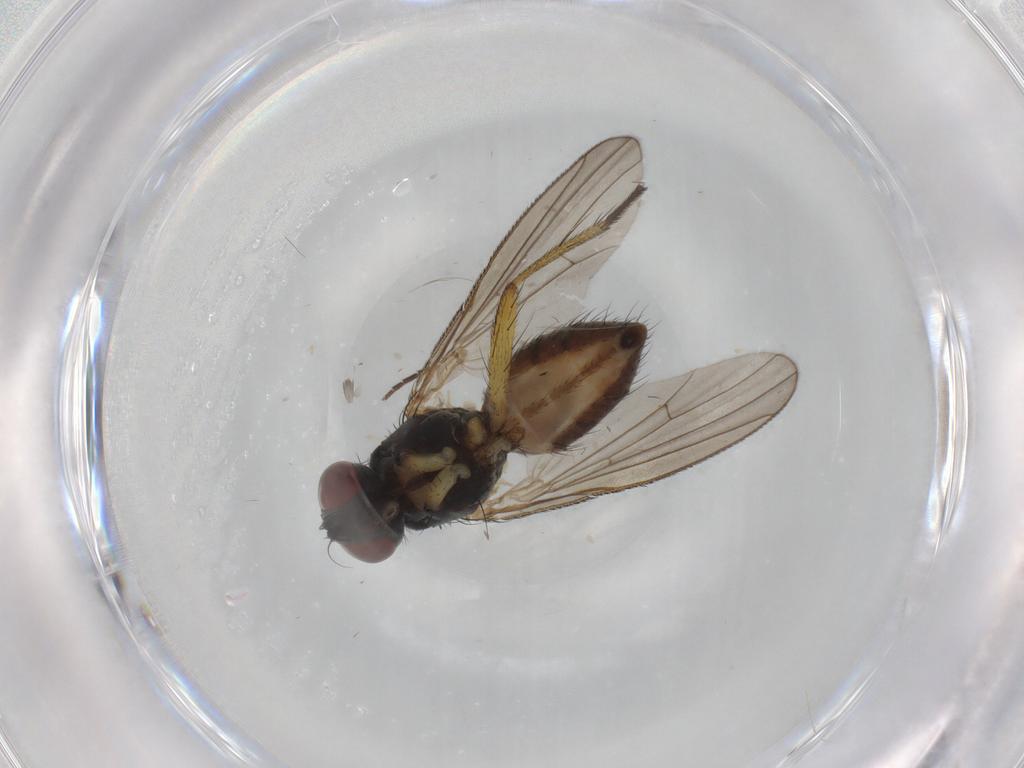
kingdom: Animalia
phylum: Arthropoda
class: Insecta
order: Diptera
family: Muscidae
